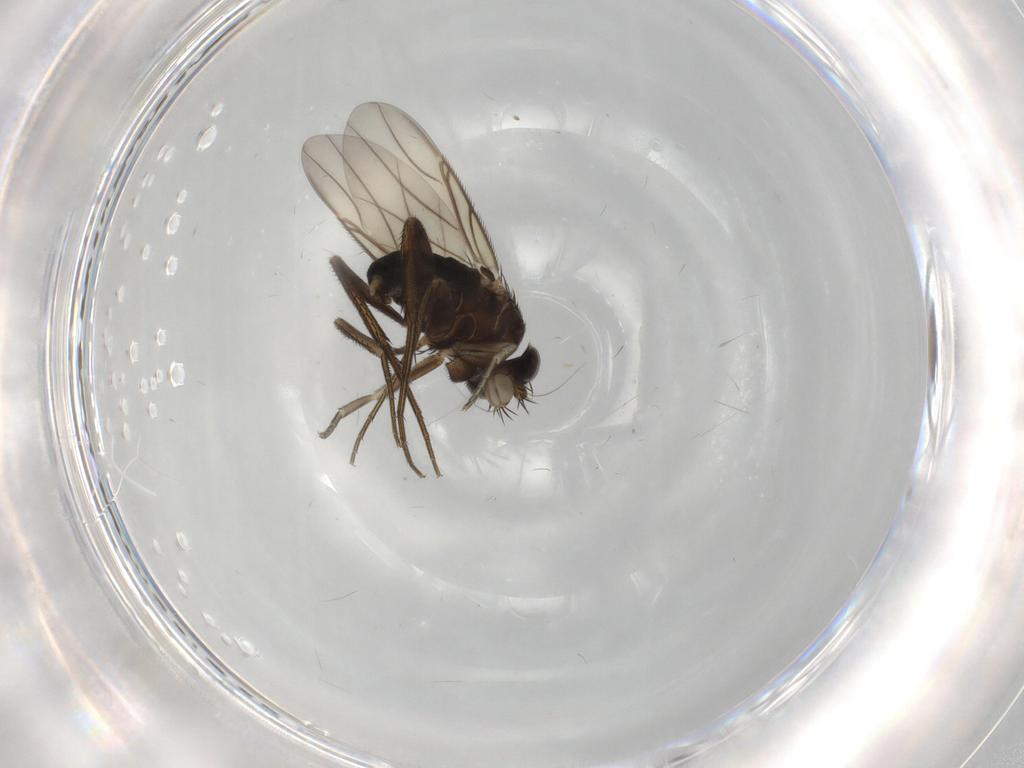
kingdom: Animalia
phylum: Arthropoda
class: Insecta
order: Diptera
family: Phoridae
